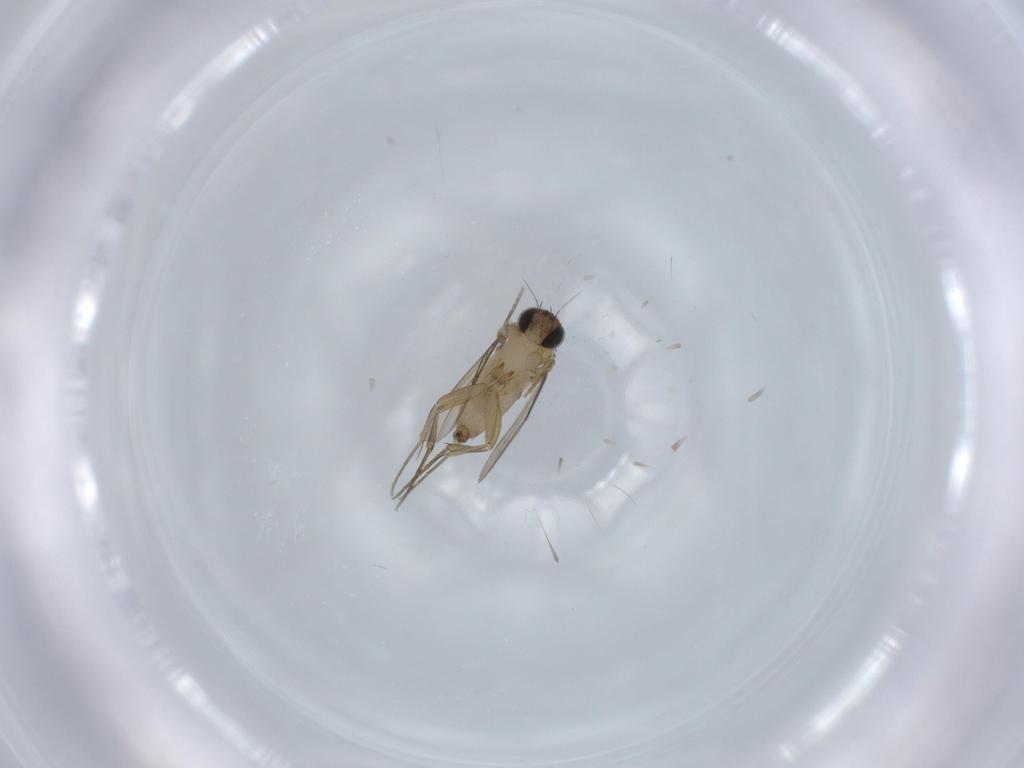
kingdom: Animalia
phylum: Arthropoda
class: Insecta
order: Diptera
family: Phoridae
